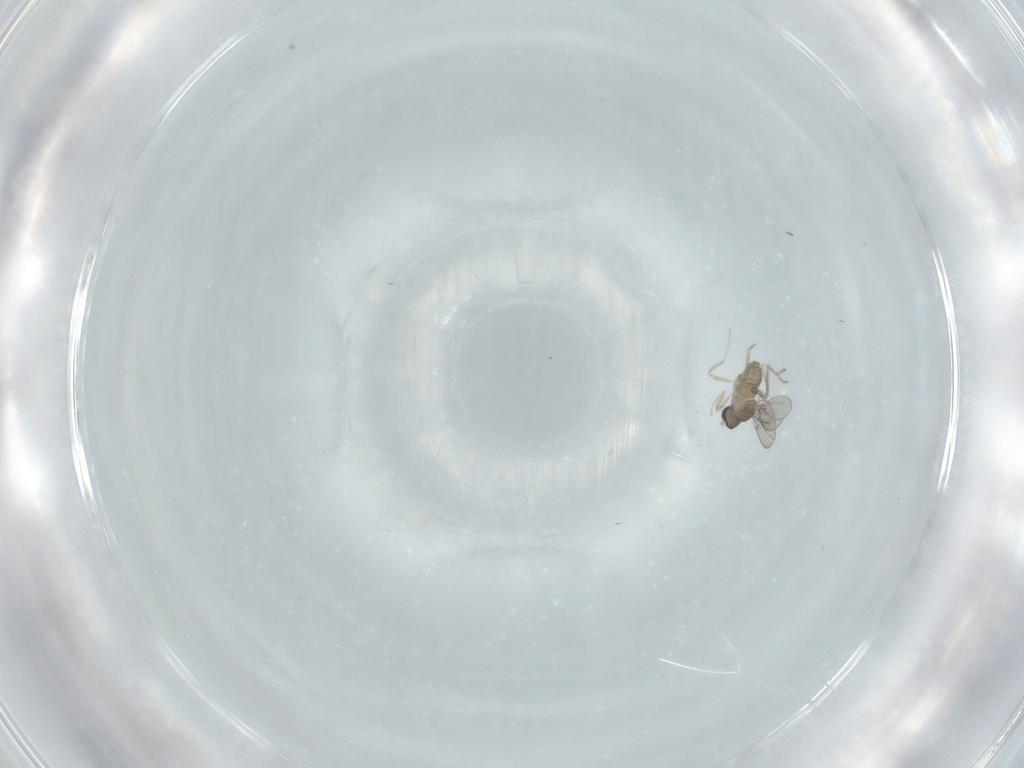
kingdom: Animalia
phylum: Arthropoda
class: Insecta
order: Diptera
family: Cecidomyiidae
